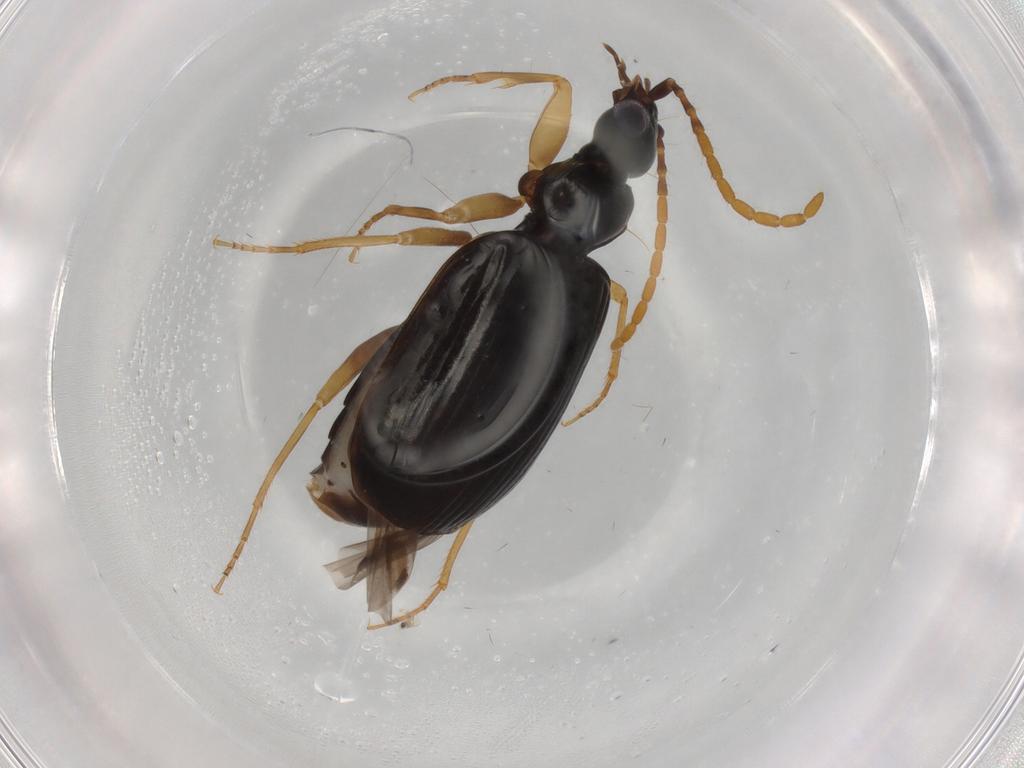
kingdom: Animalia
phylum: Arthropoda
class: Insecta
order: Coleoptera
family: Carabidae
